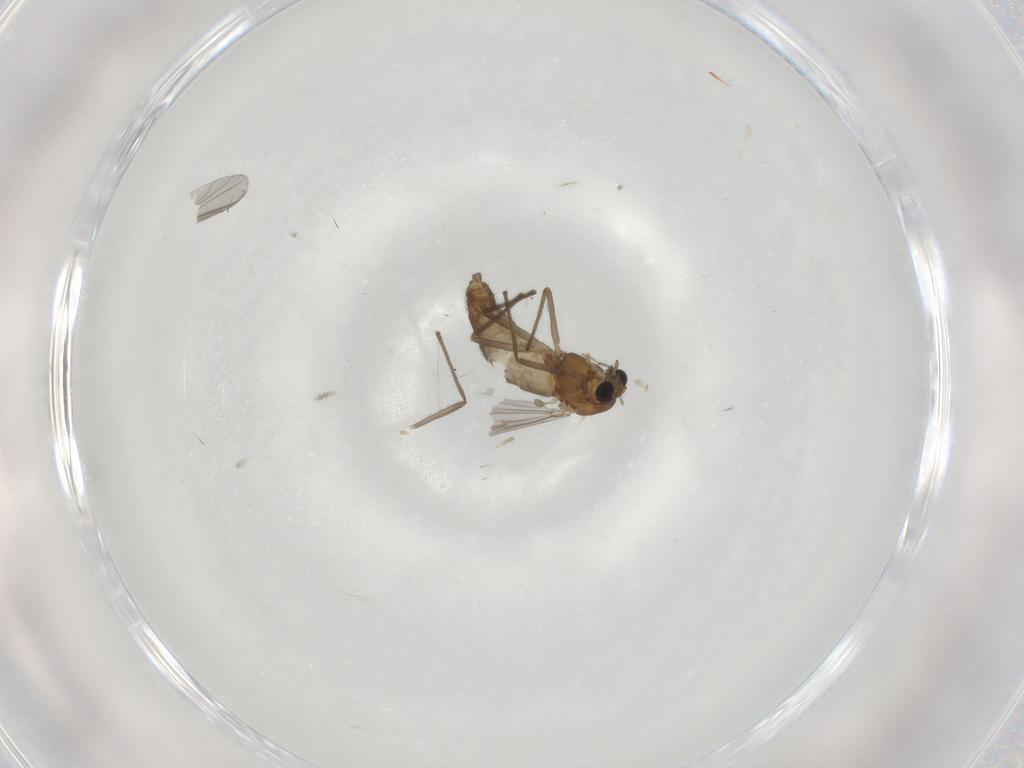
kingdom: Animalia
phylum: Arthropoda
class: Insecta
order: Diptera
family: Chironomidae
